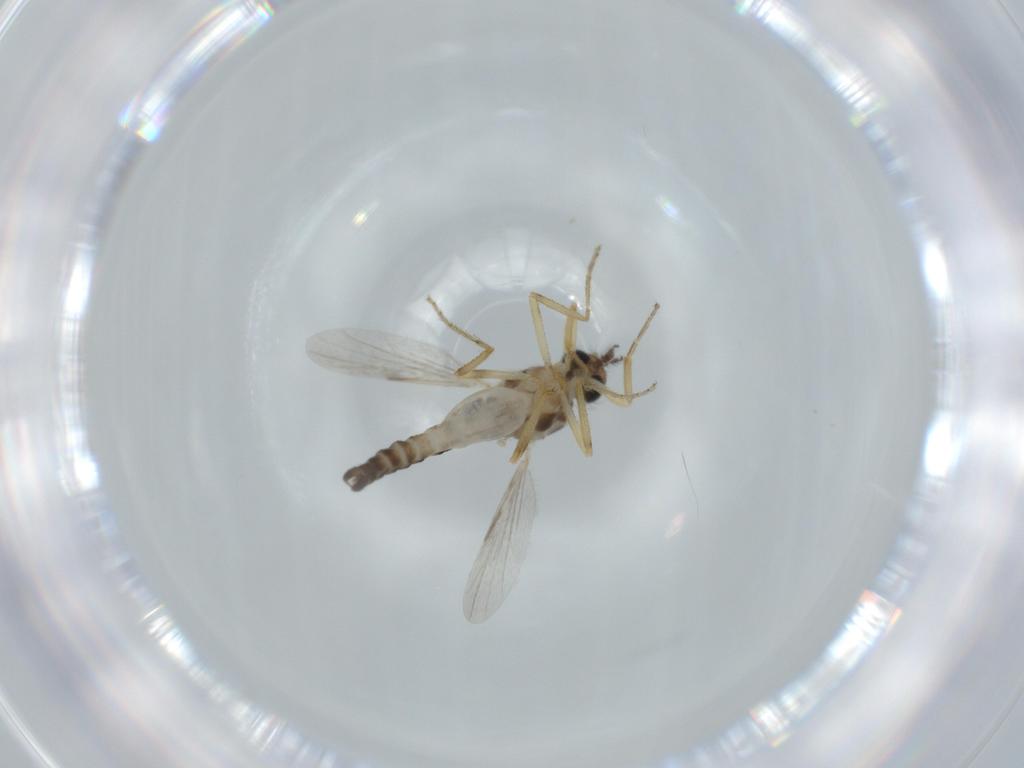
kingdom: Animalia
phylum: Arthropoda
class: Insecta
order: Diptera
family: Ceratopogonidae
